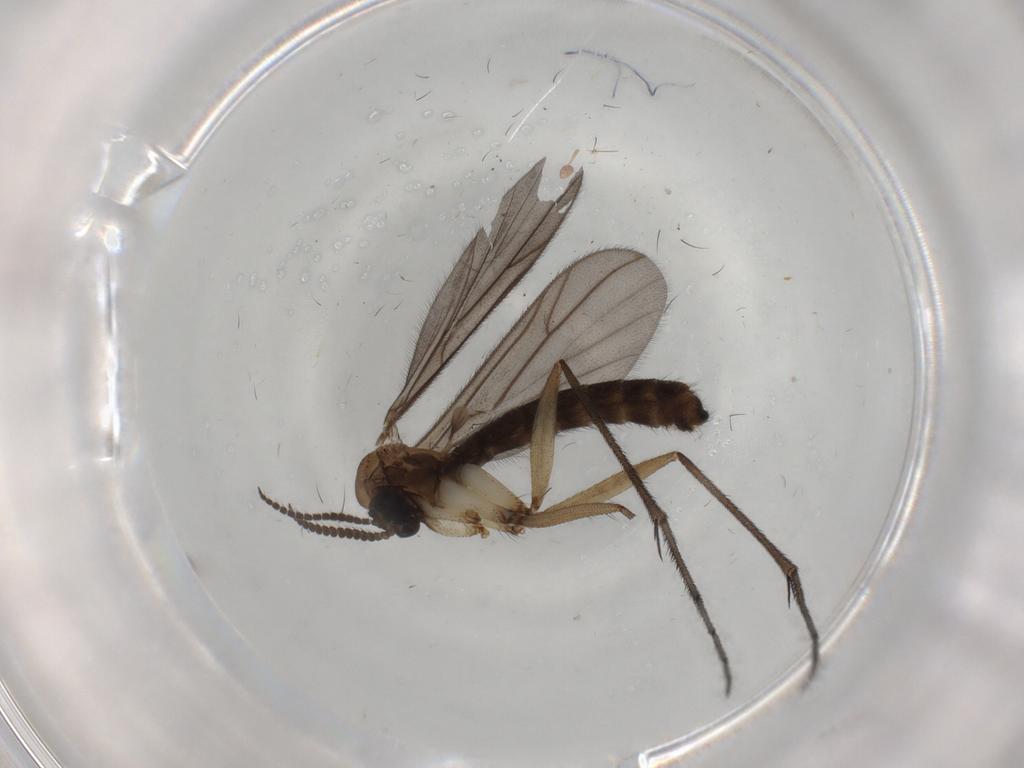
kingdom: Animalia
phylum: Arthropoda
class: Insecta
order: Diptera
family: Ditomyiidae
